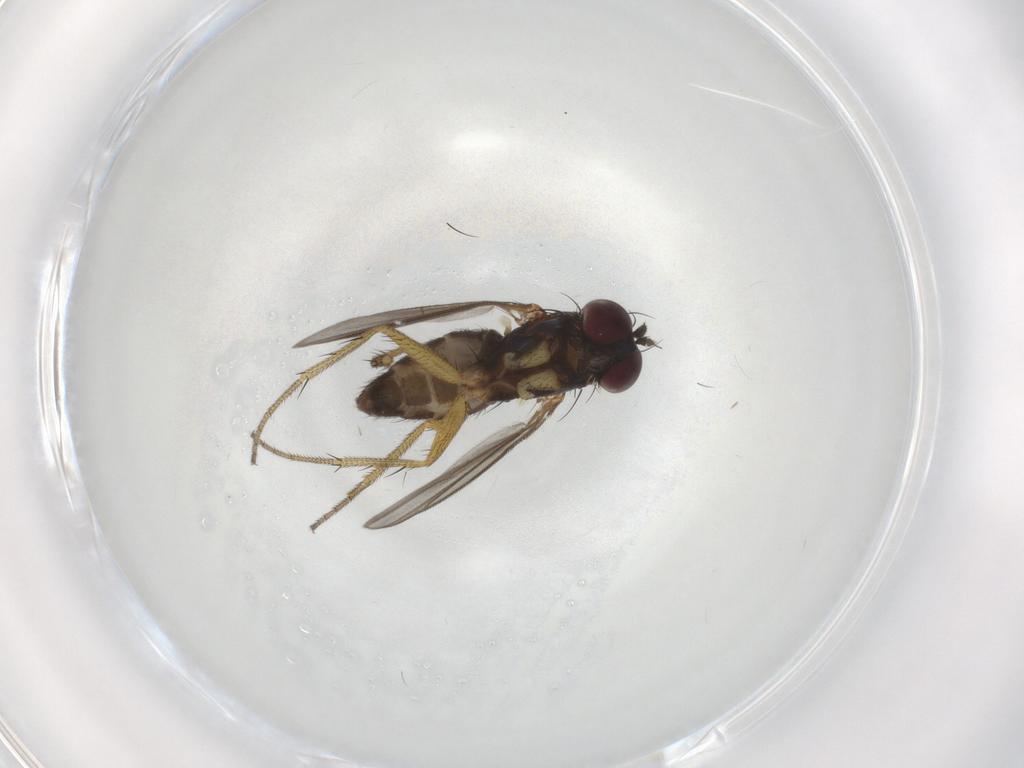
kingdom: Animalia
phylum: Arthropoda
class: Insecta
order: Diptera
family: Dolichopodidae
